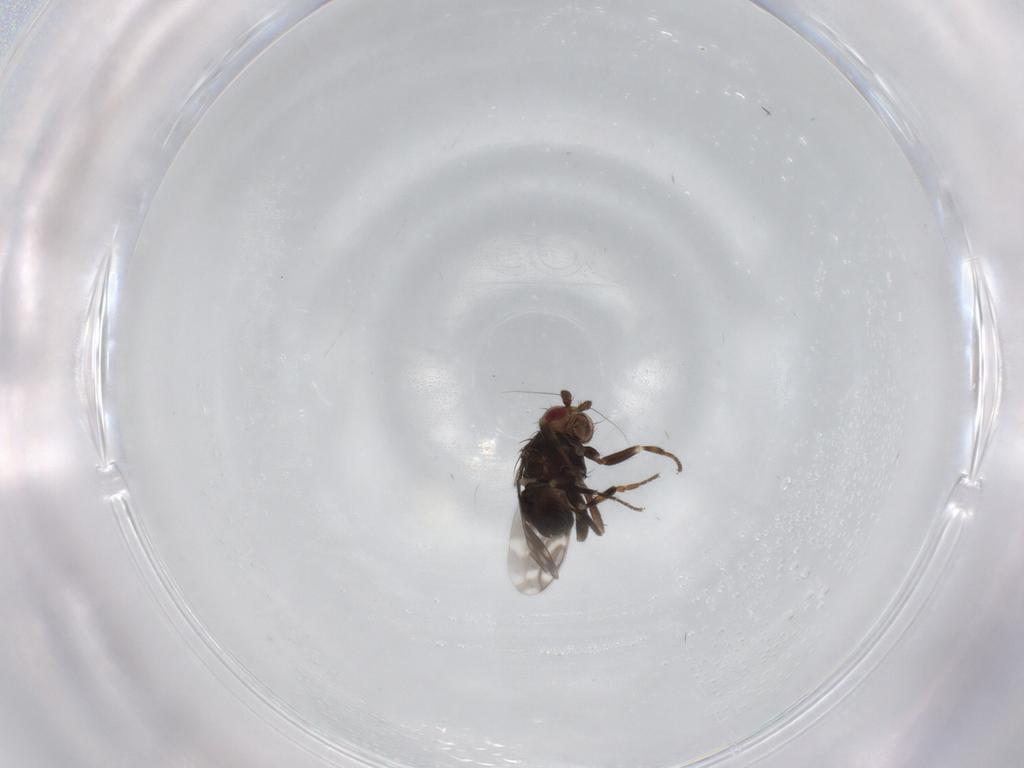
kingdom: Animalia
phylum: Arthropoda
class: Insecta
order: Diptera
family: Sphaeroceridae
